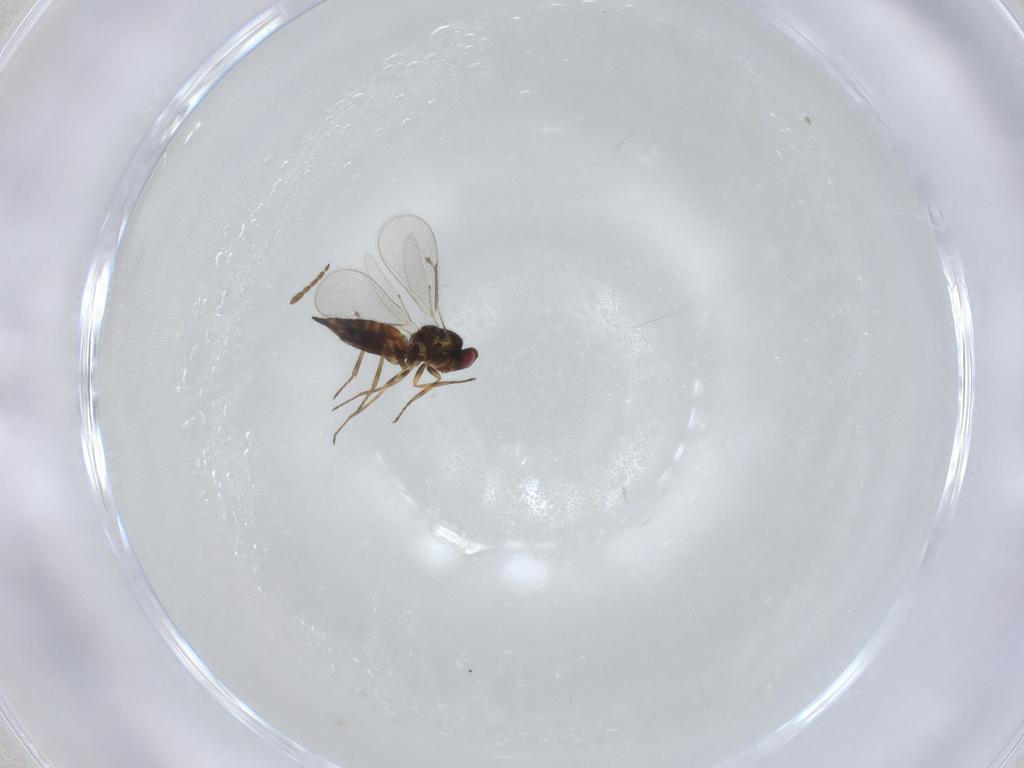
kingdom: Animalia
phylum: Arthropoda
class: Insecta
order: Hymenoptera
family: Eulophidae
